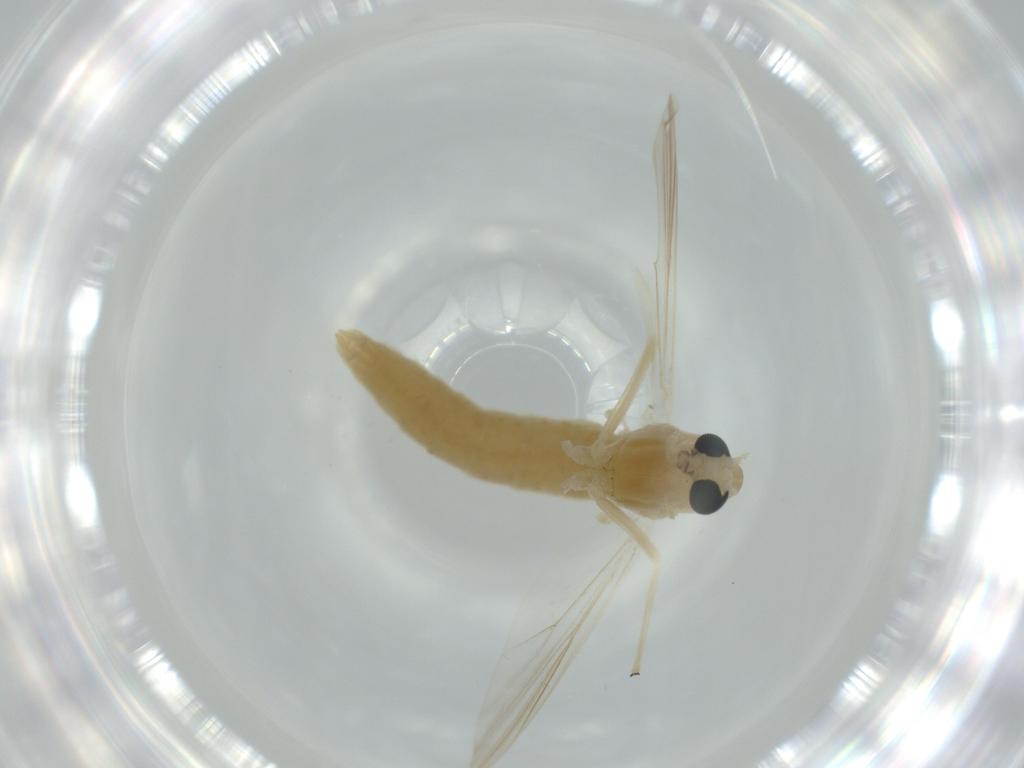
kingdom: Animalia
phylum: Arthropoda
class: Insecta
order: Diptera
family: Chironomidae
